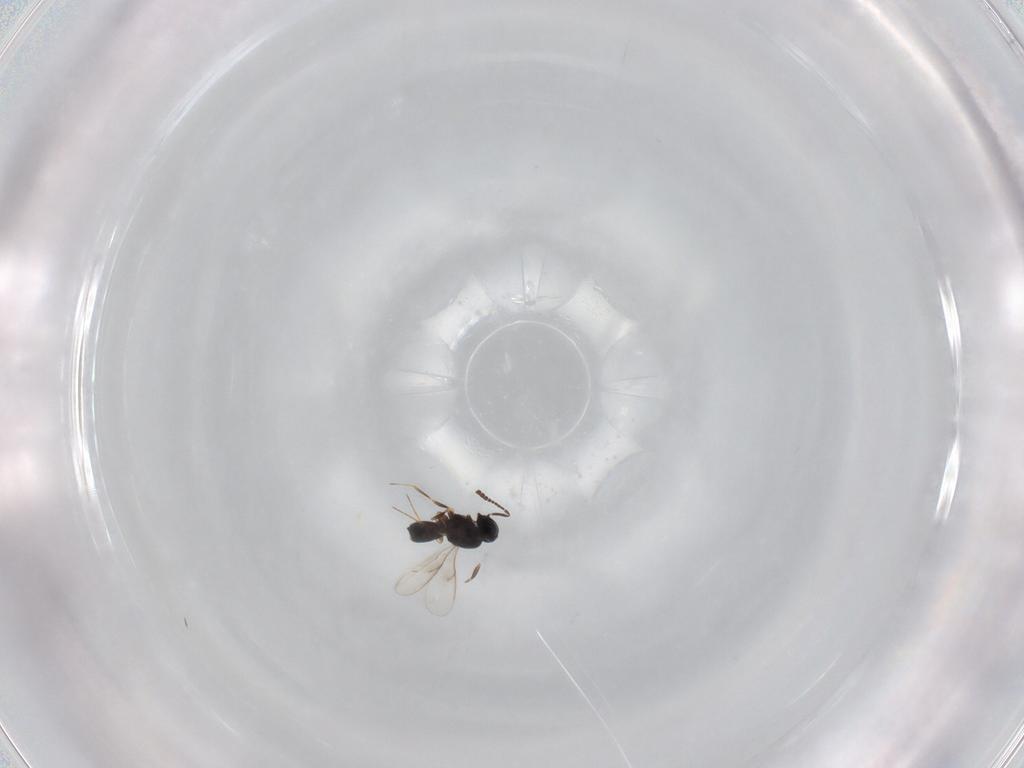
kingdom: Animalia
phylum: Arthropoda
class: Insecta
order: Hymenoptera
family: Scelionidae
